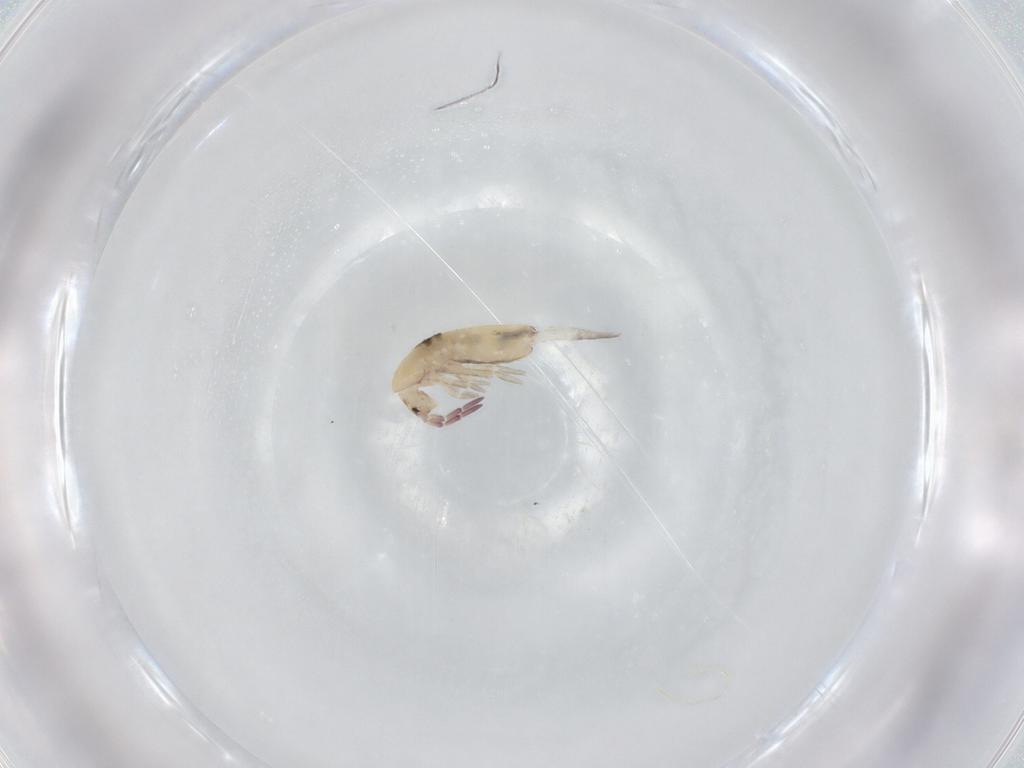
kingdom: Animalia
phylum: Arthropoda
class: Collembola
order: Entomobryomorpha
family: Entomobryidae
